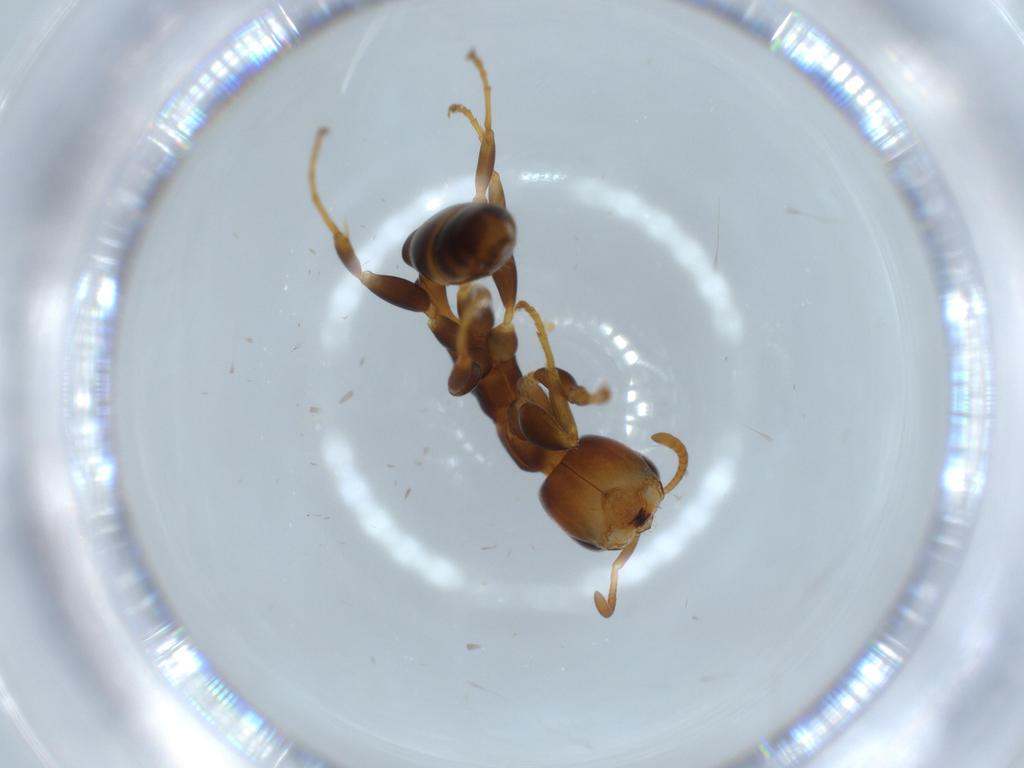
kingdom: Animalia
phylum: Arthropoda
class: Insecta
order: Hymenoptera
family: Formicidae
